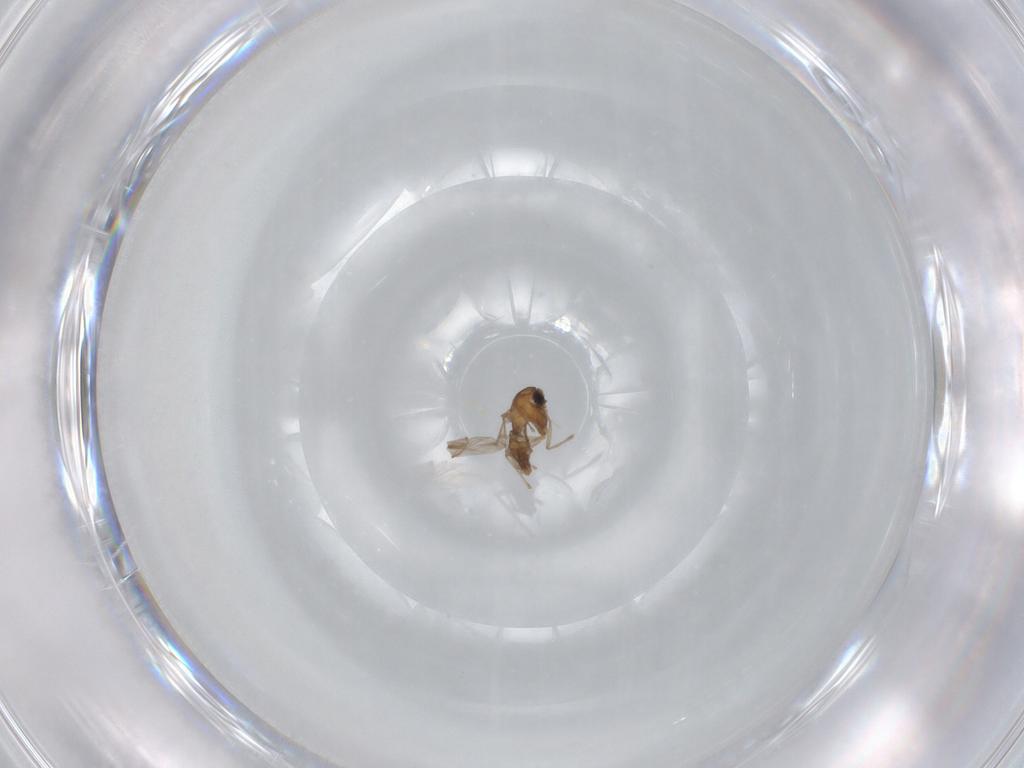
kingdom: Animalia
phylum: Arthropoda
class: Insecta
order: Diptera
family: Chironomidae
